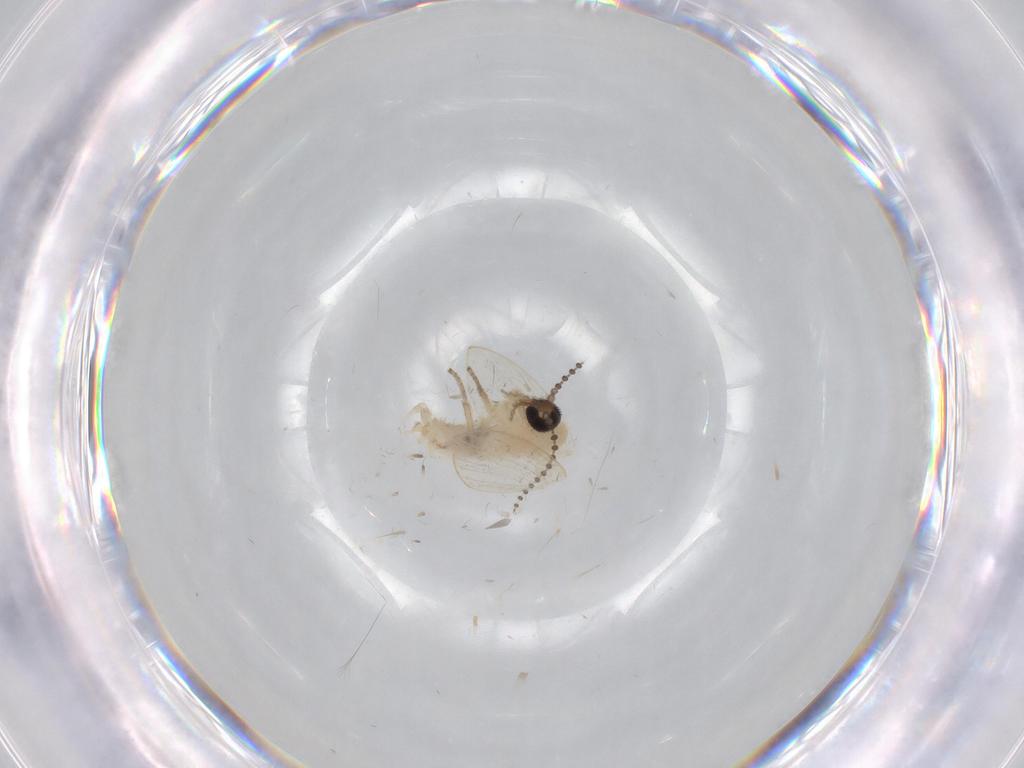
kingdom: Animalia
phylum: Arthropoda
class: Insecta
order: Diptera
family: Psychodidae
